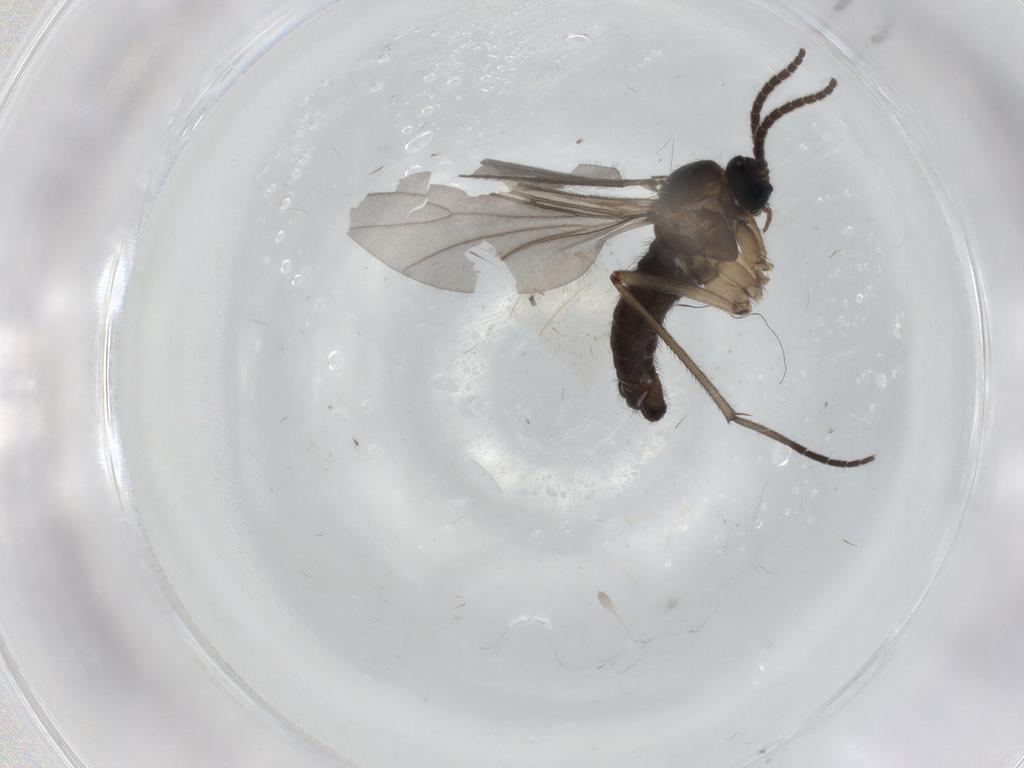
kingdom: Animalia
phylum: Arthropoda
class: Insecta
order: Diptera
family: Sciaridae
